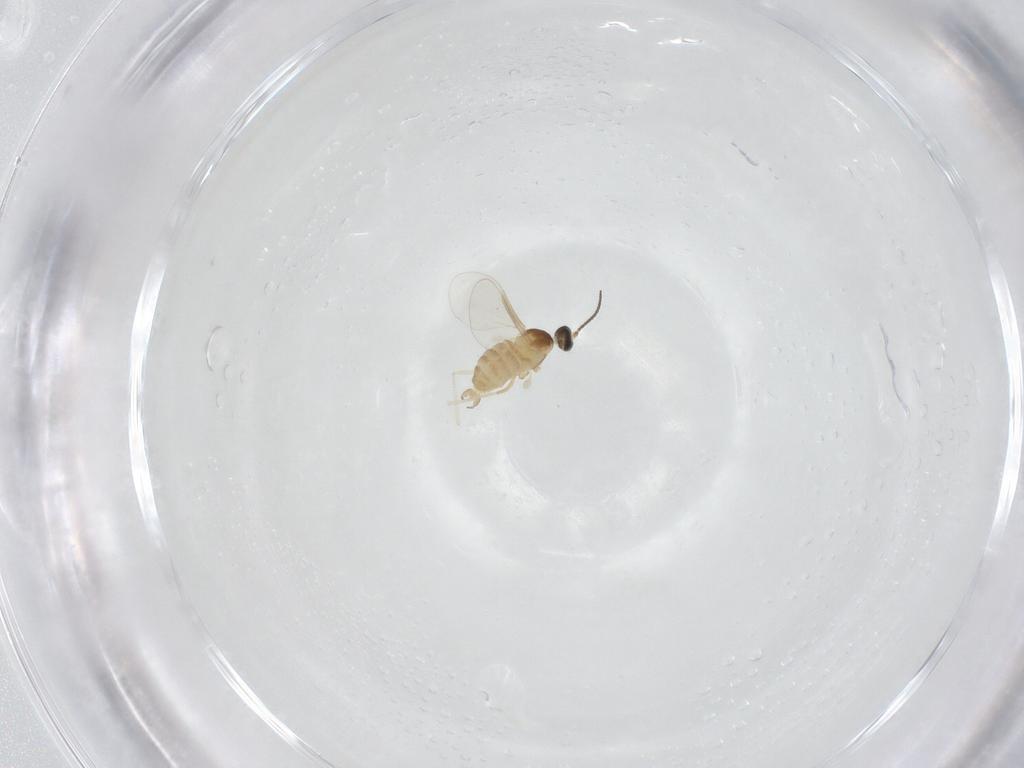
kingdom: Animalia
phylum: Arthropoda
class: Insecta
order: Diptera
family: Cecidomyiidae
